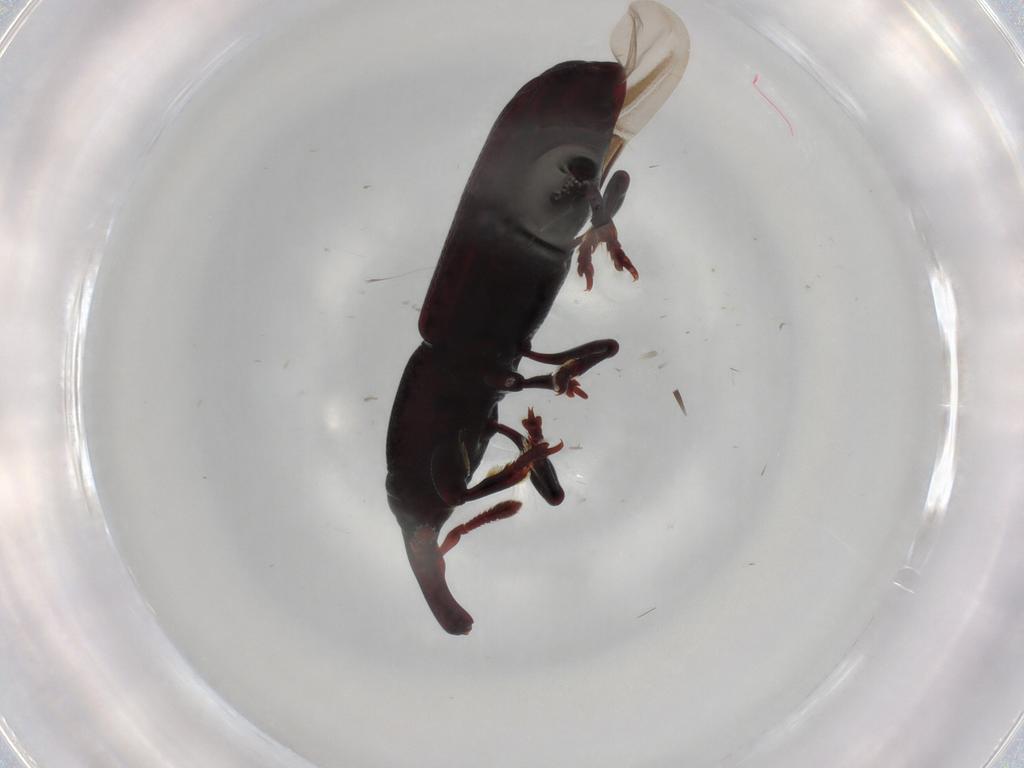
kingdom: Animalia
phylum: Arthropoda
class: Insecta
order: Coleoptera
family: Curculionidae
